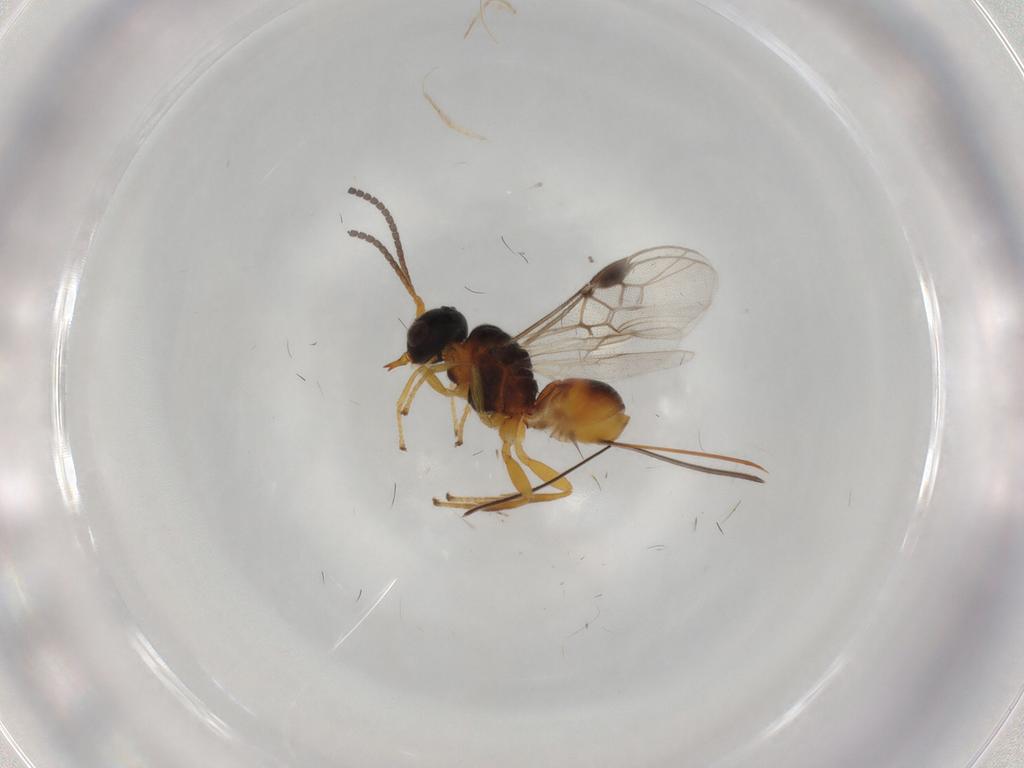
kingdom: Animalia
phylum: Arthropoda
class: Insecta
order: Hymenoptera
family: Braconidae
